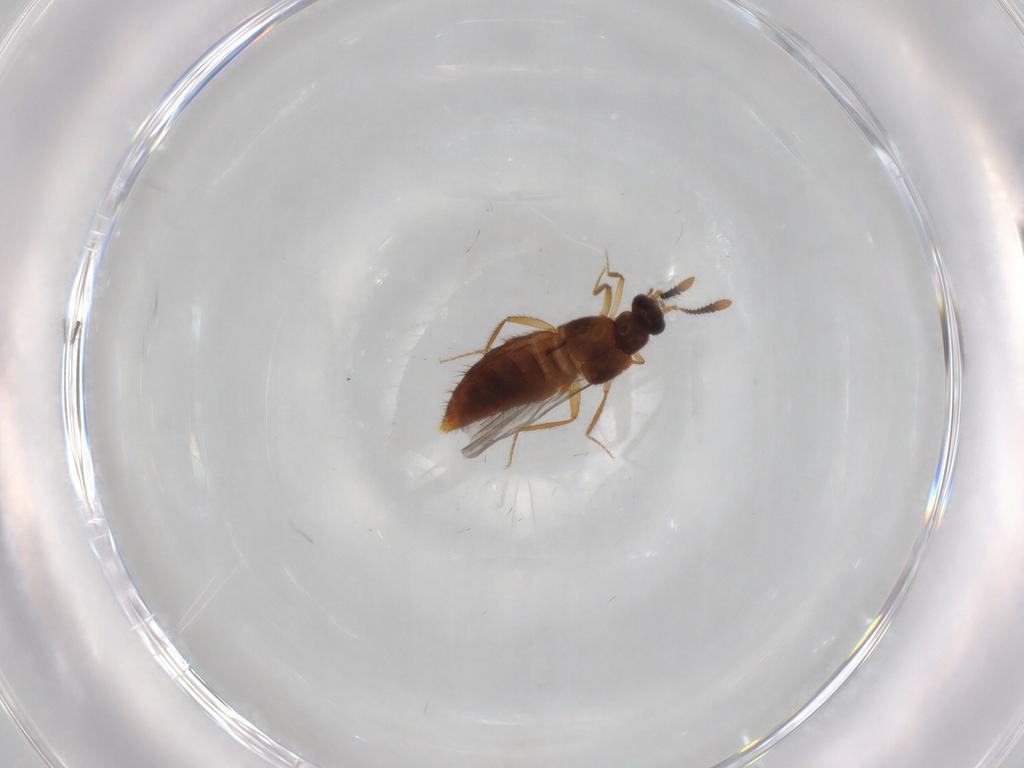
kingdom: Animalia
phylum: Arthropoda
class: Insecta
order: Coleoptera
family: Staphylinidae
